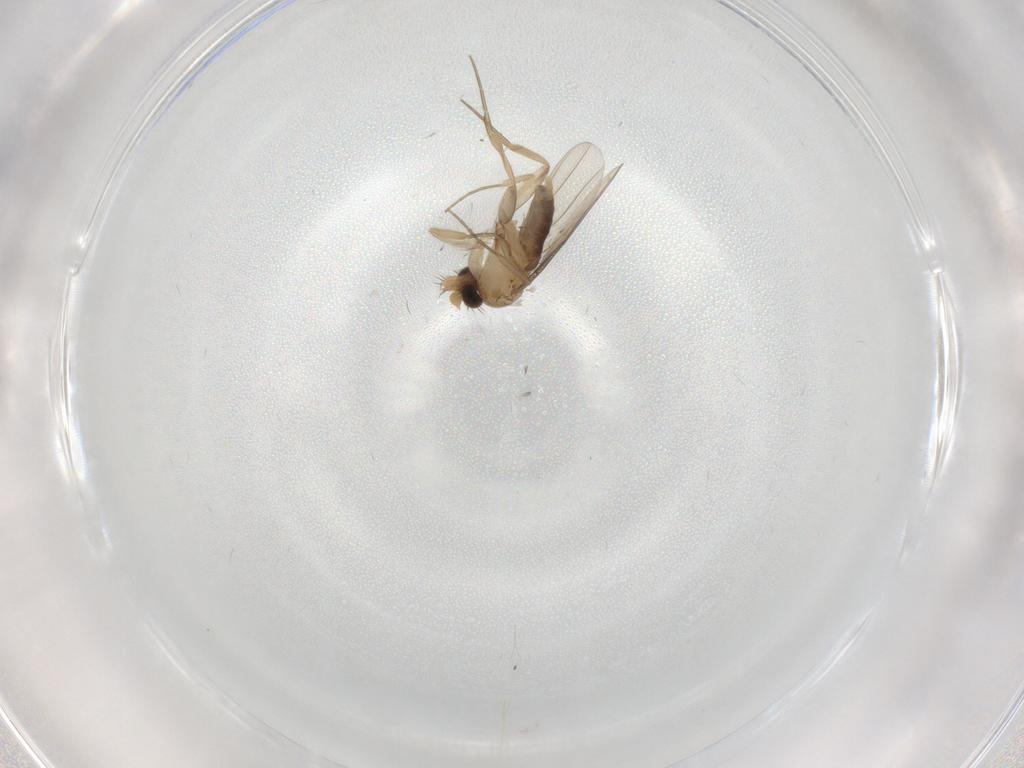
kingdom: Animalia
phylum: Arthropoda
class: Insecta
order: Diptera
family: Phoridae
